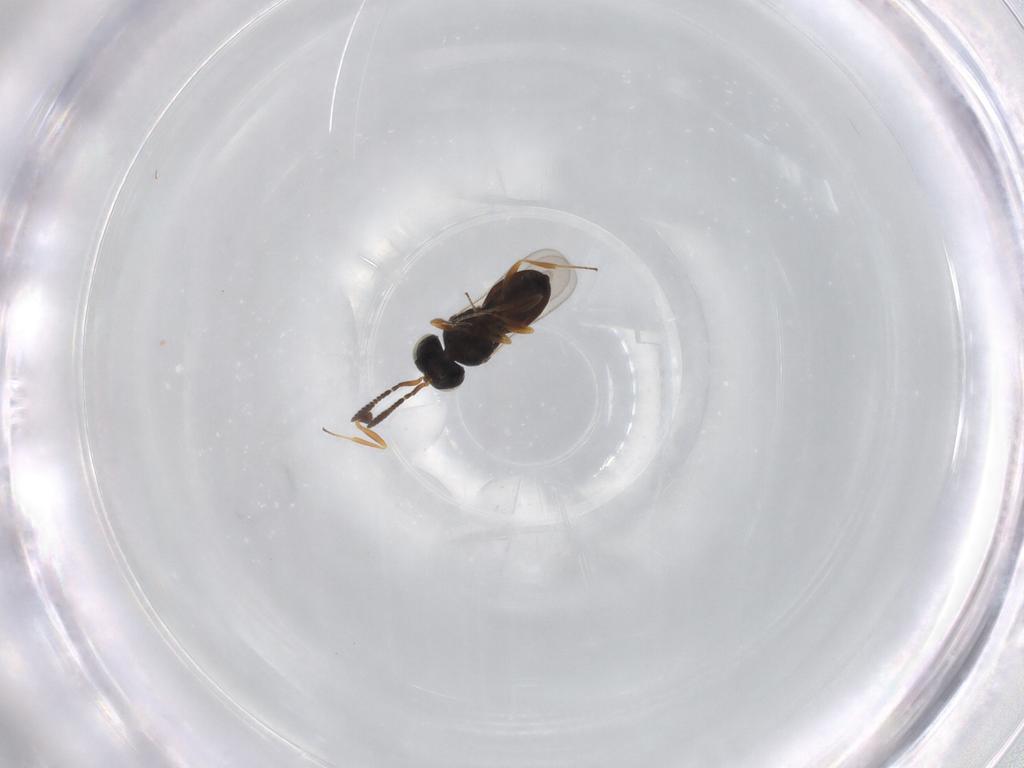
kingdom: Animalia
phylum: Arthropoda
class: Insecta
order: Hymenoptera
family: Scelionidae
